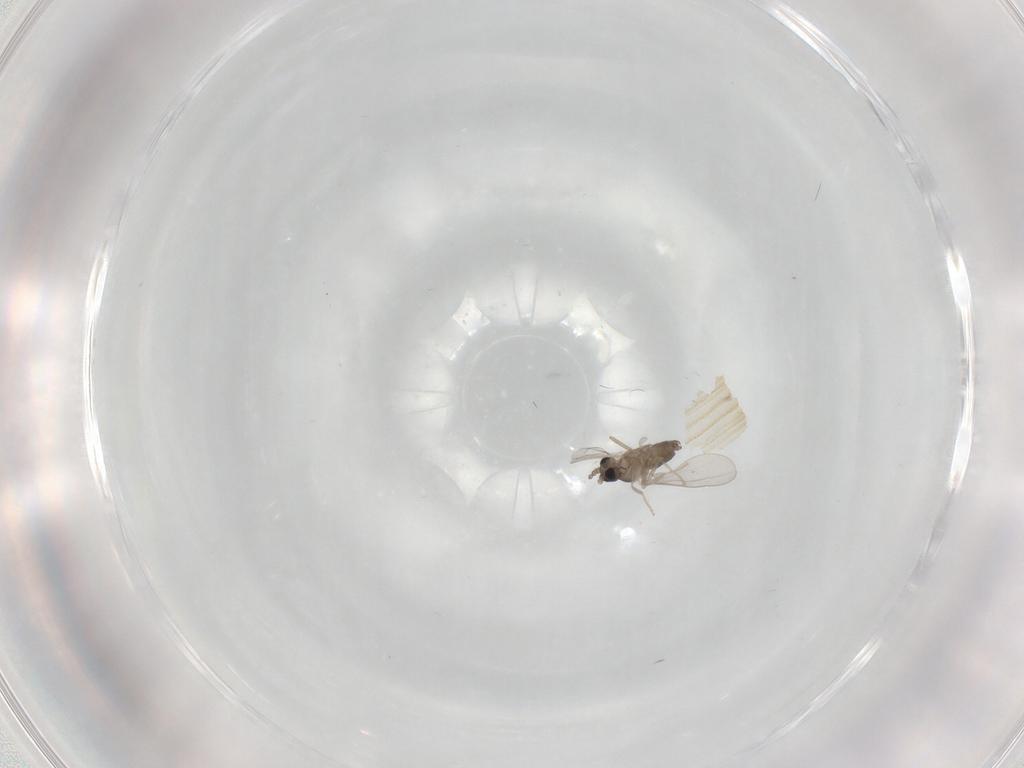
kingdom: Animalia
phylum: Arthropoda
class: Insecta
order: Diptera
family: Cecidomyiidae
